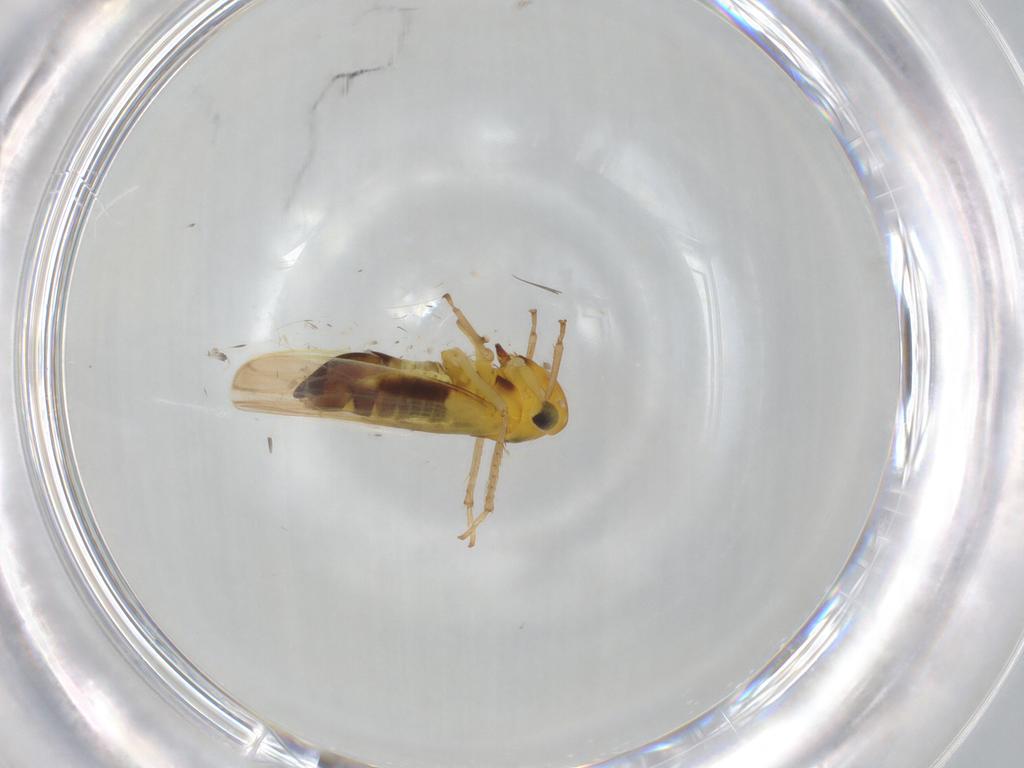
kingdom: Animalia
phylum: Arthropoda
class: Insecta
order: Hemiptera
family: Cicadellidae
